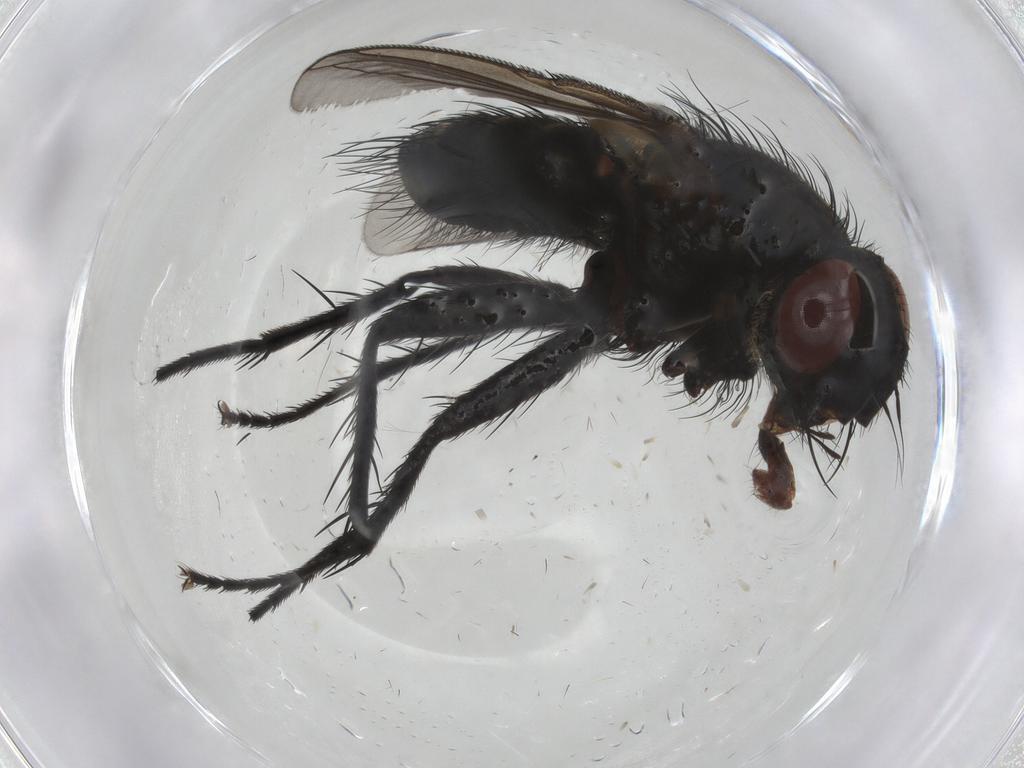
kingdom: Animalia
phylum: Arthropoda
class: Insecta
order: Diptera
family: Tachinidae
